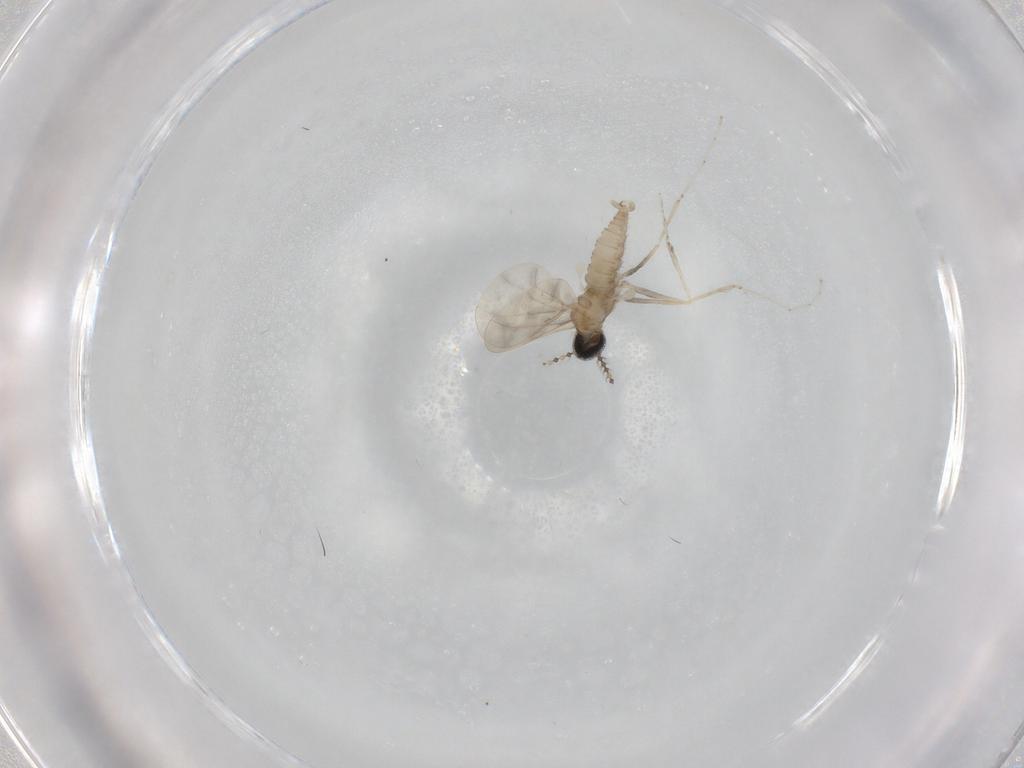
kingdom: Animalia
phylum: Arthropoda
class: Insecta
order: Diptera
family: Cecidomyiidae
